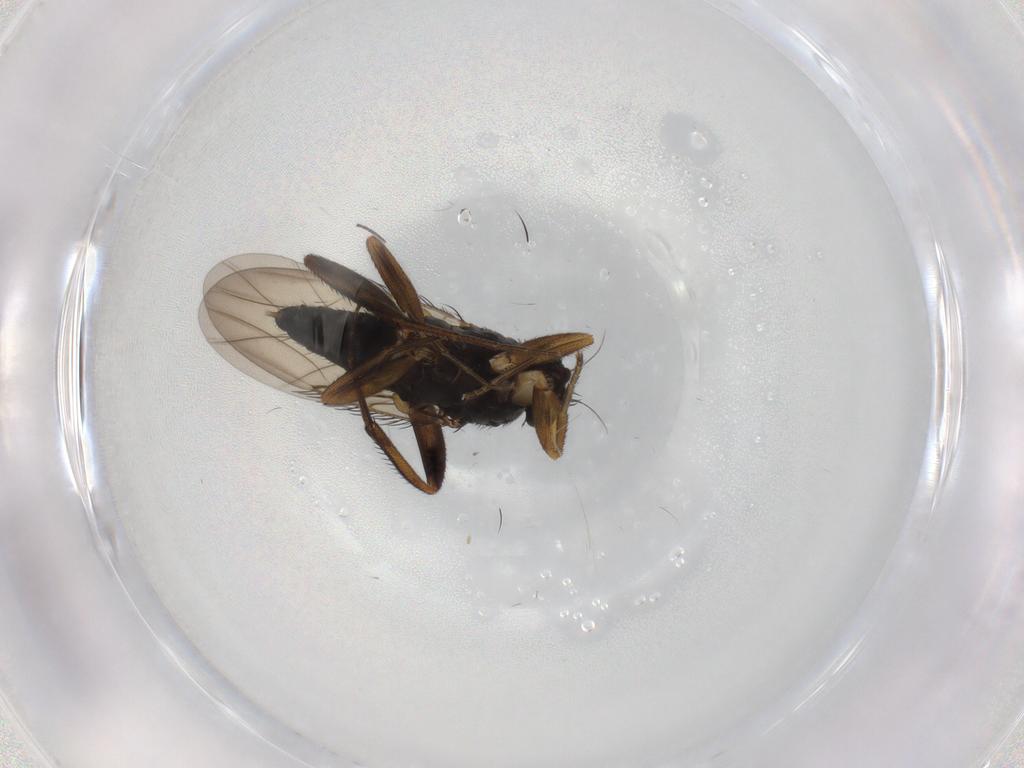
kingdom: Animalia
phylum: Arthropoda
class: Insecta
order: Diptera
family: Phoridae
